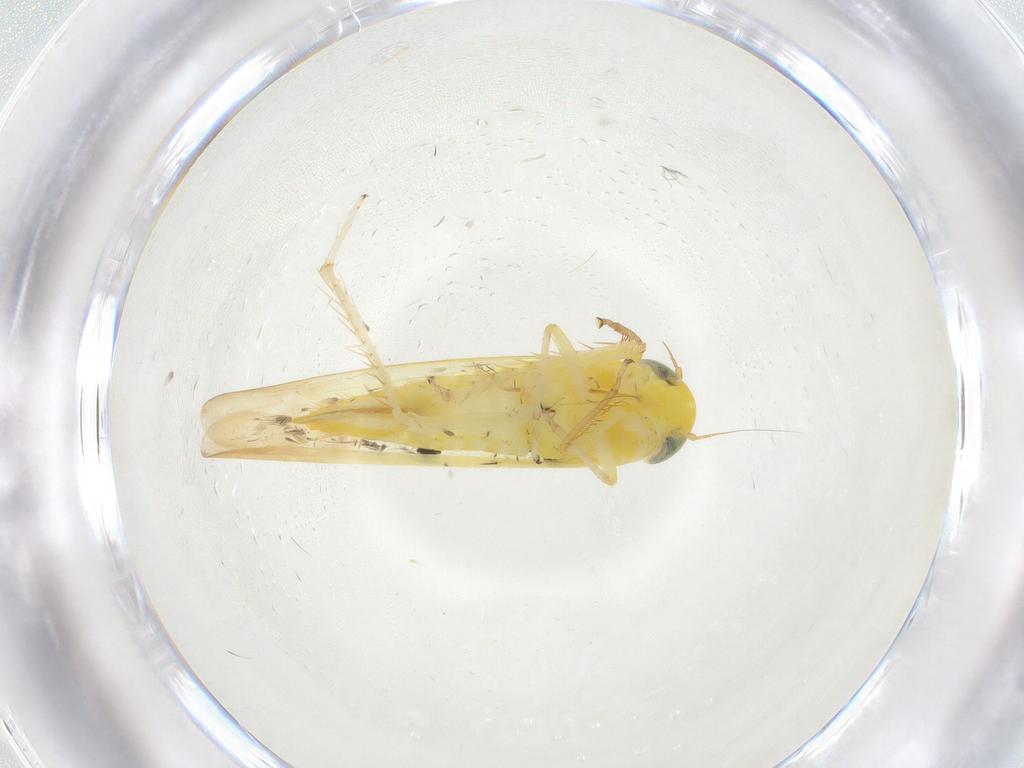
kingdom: Animalia
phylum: Arthropoda
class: Insecta
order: Hemiptera
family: Cicadellidae
